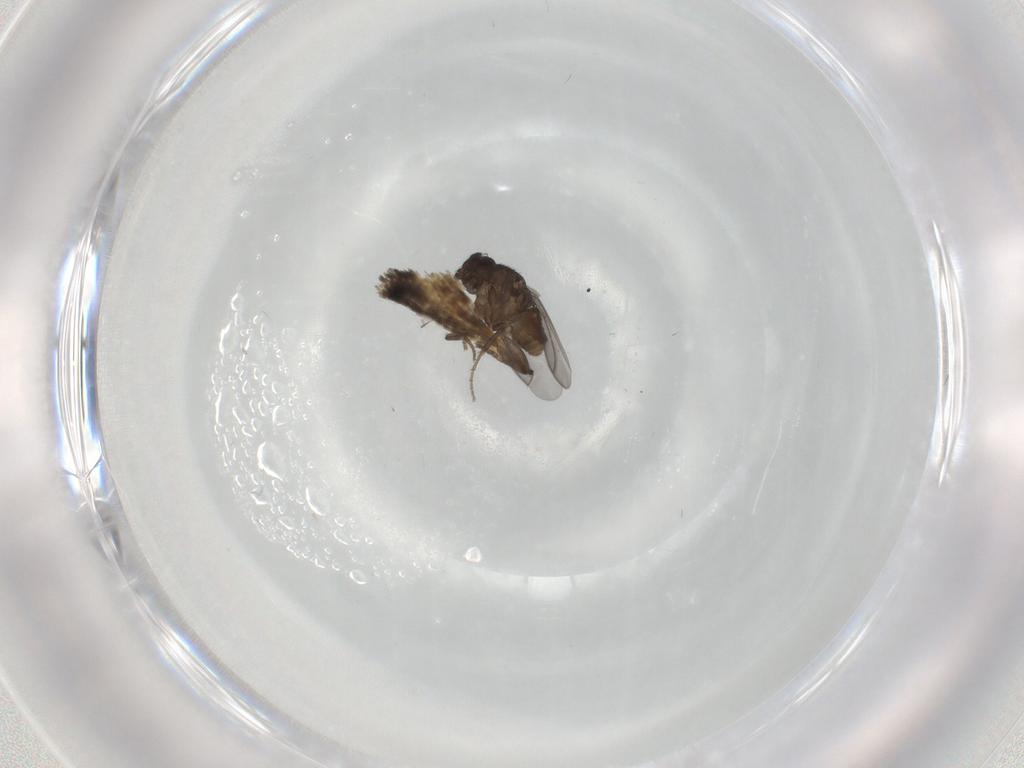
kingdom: Animalia
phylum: Arthropoda
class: Insecta
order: Diptera
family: Sphaeroceridae
